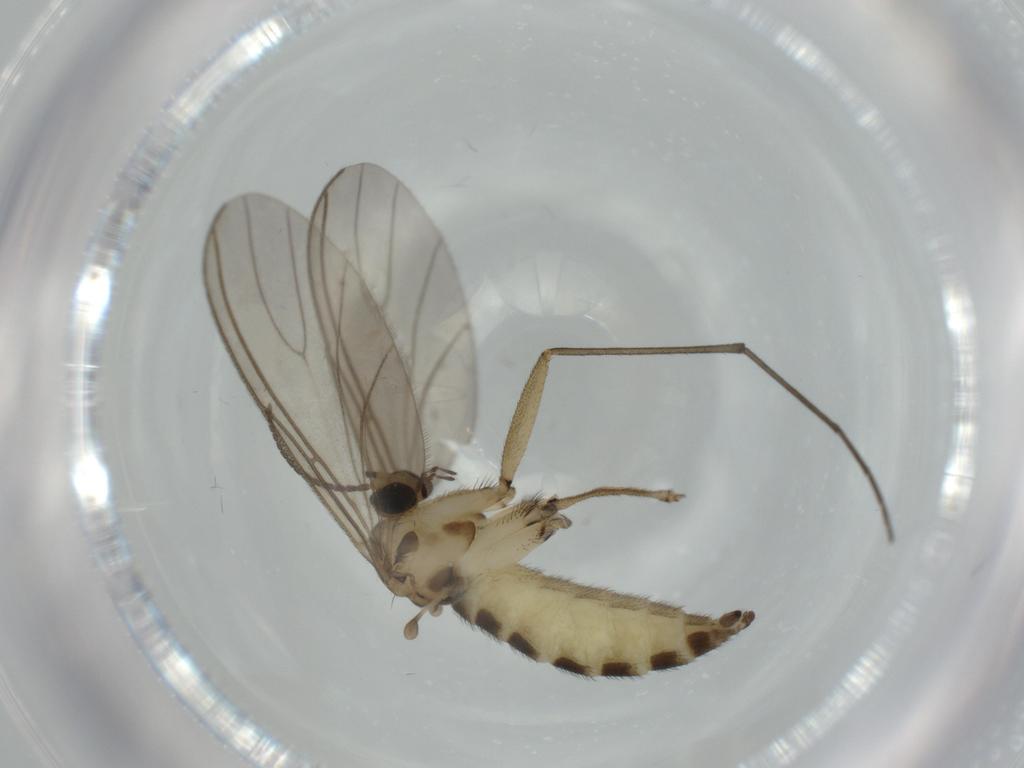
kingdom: Animalia
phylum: Arthropoda
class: Insecta
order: Diptera
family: Sciaridae
